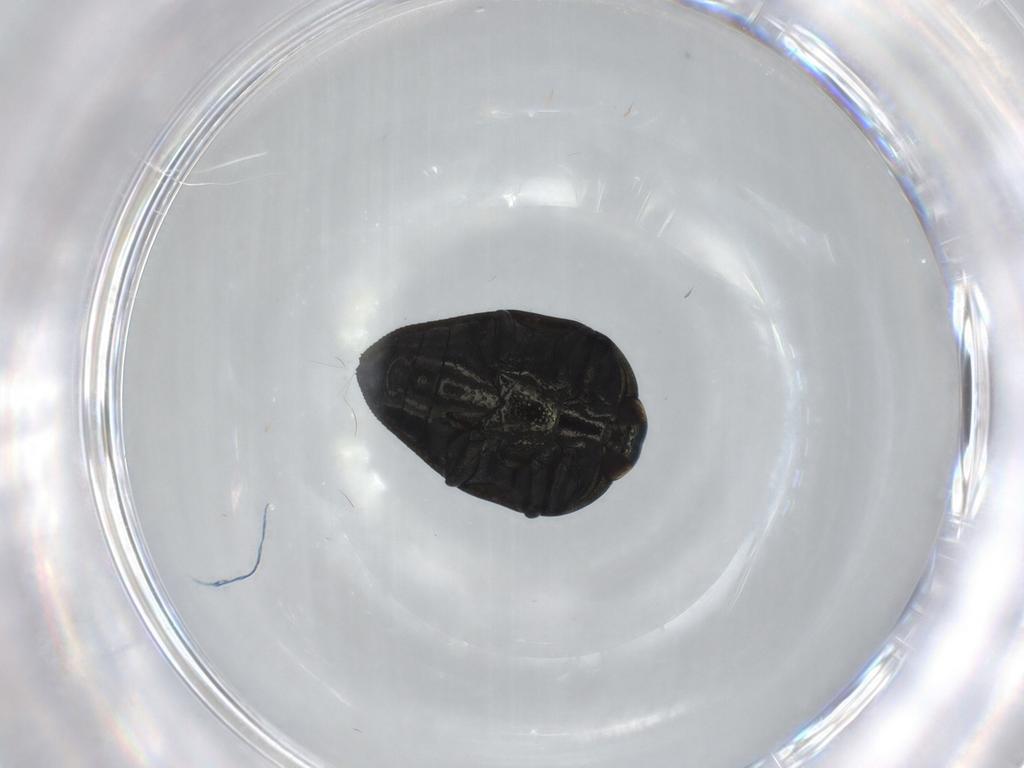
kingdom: Animalia
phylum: Arthropoda
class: Insecta
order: Coleoptera
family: Buprestidae
